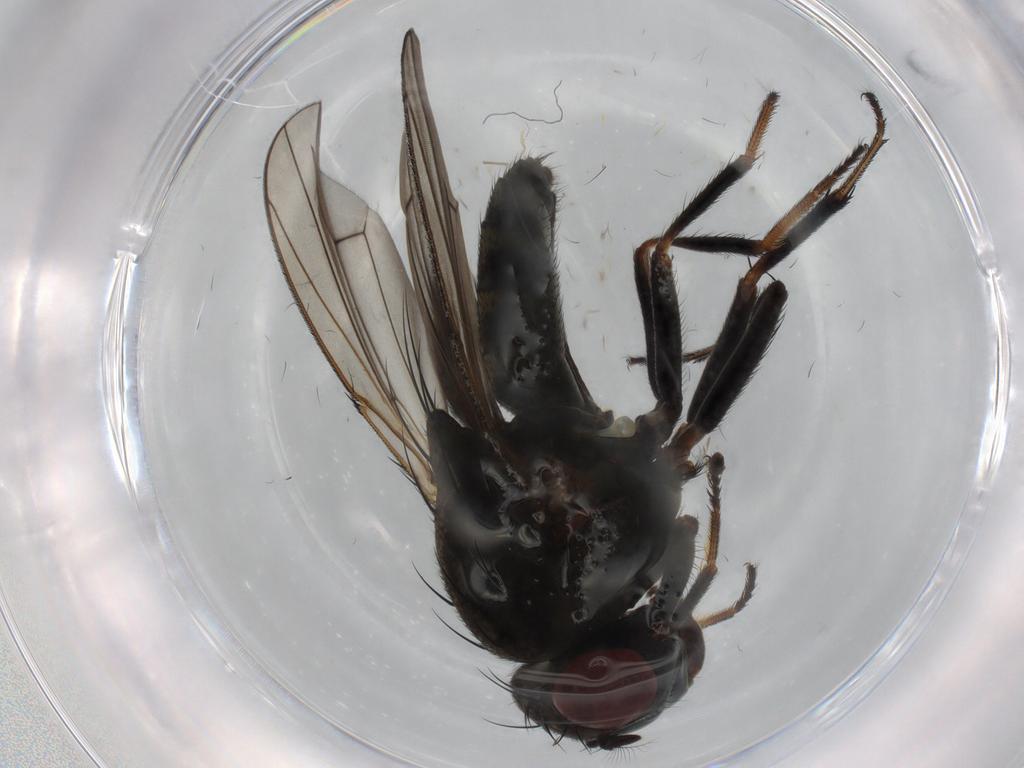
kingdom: Animalia
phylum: Arthropoda
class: Insecta
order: Diptera
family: Ephydridae
